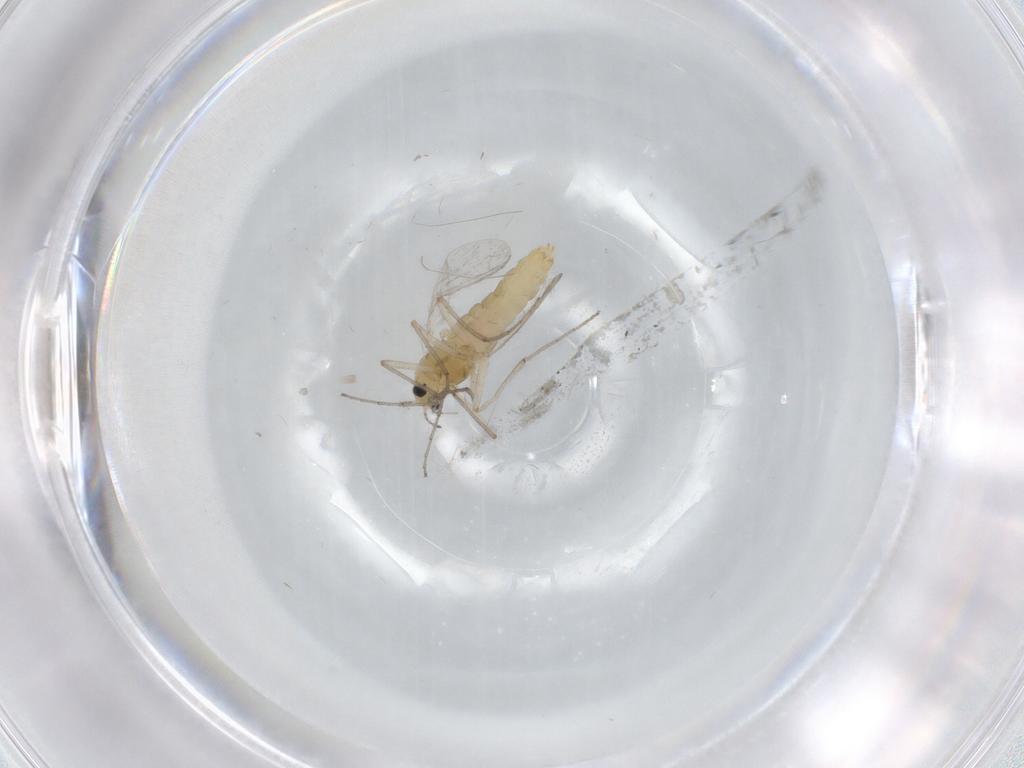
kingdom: Animalia
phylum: Arthropoda
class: Insecta
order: Diptera
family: Chironomidae
